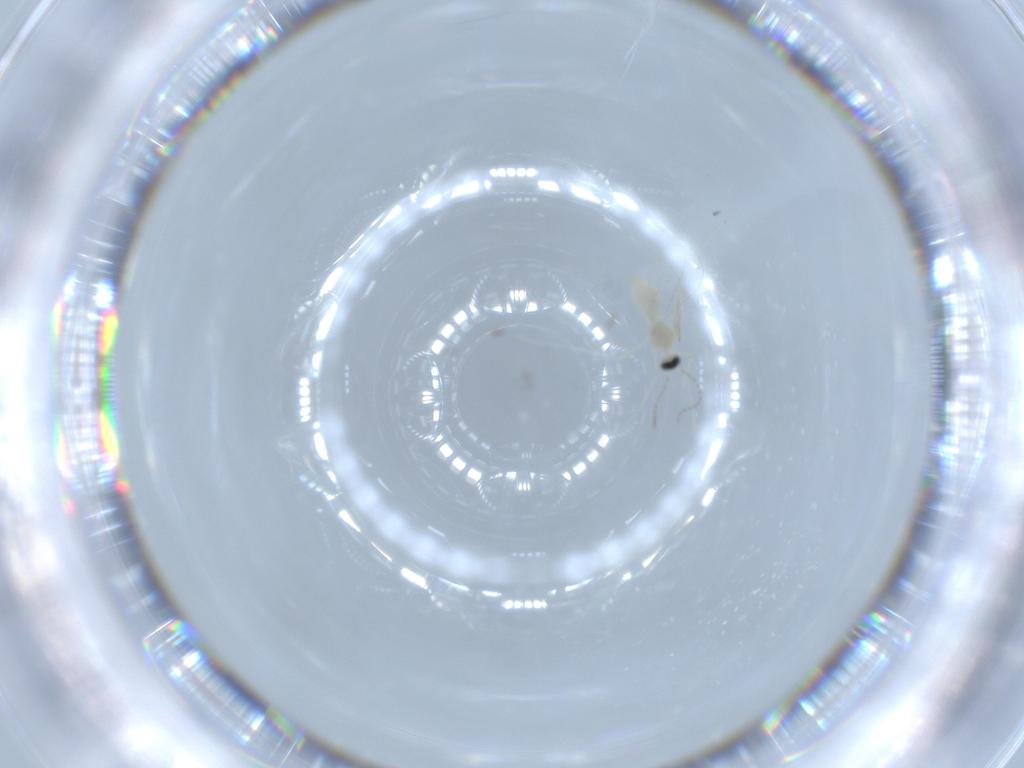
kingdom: Animalia
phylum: Arthropoda
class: Insecta
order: Diptera
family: Cecidomyiidae
